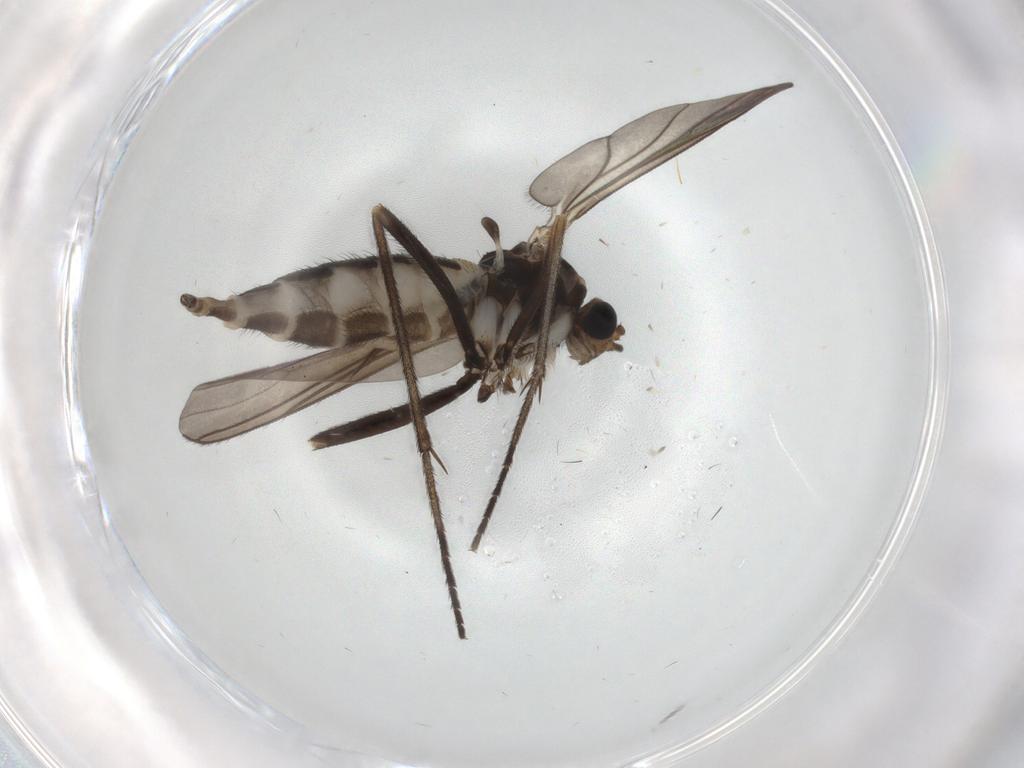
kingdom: Animalia
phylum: Arthropoda
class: Insecta
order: Diptera
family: Sciaridae
